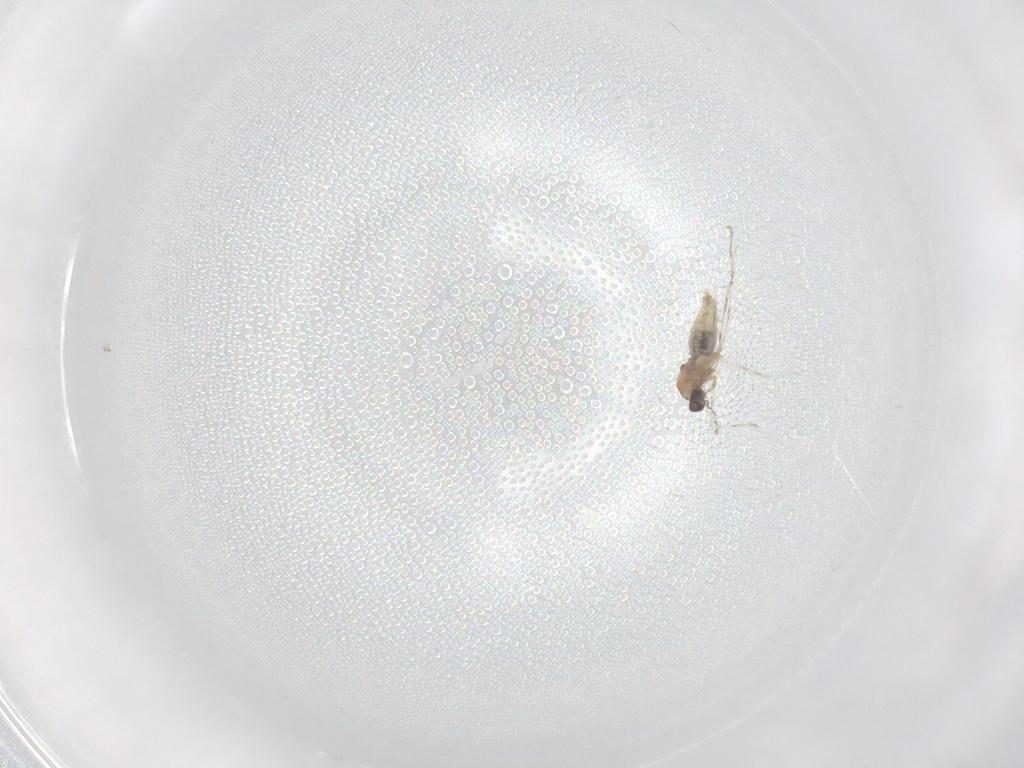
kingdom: Animalia
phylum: Arthropoda
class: Insecta
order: Diptera
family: Cecidomyiidae
